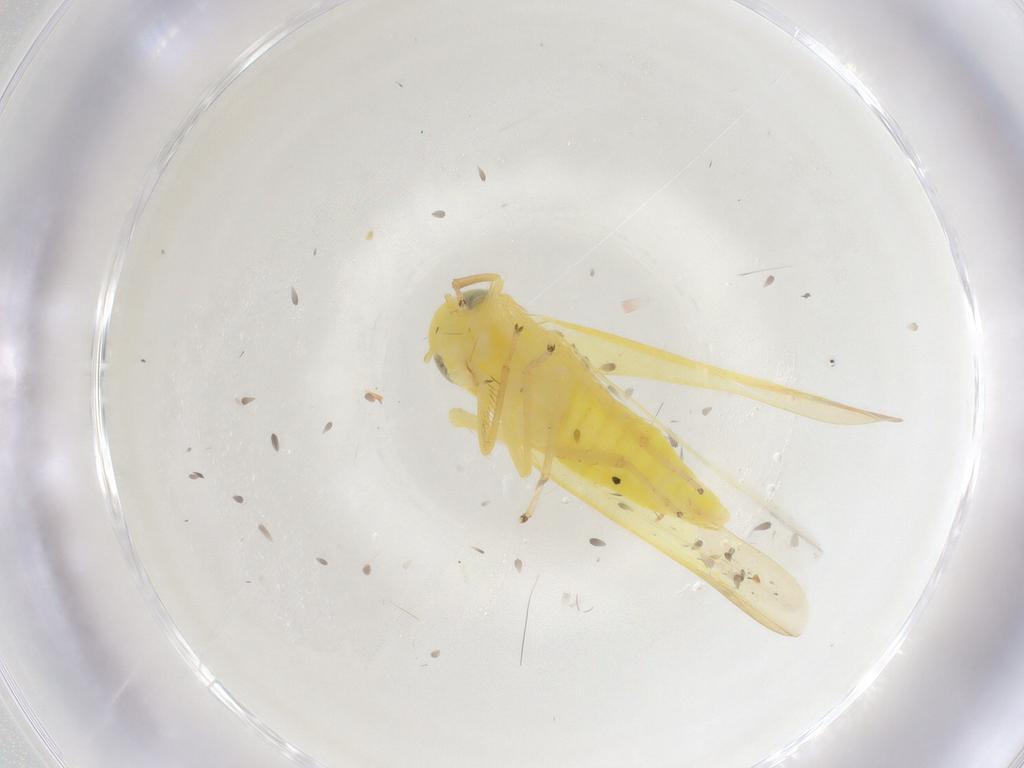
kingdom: Animalia
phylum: Arthropoda
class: Insecta
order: Hemiptera
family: Cicadellidae
